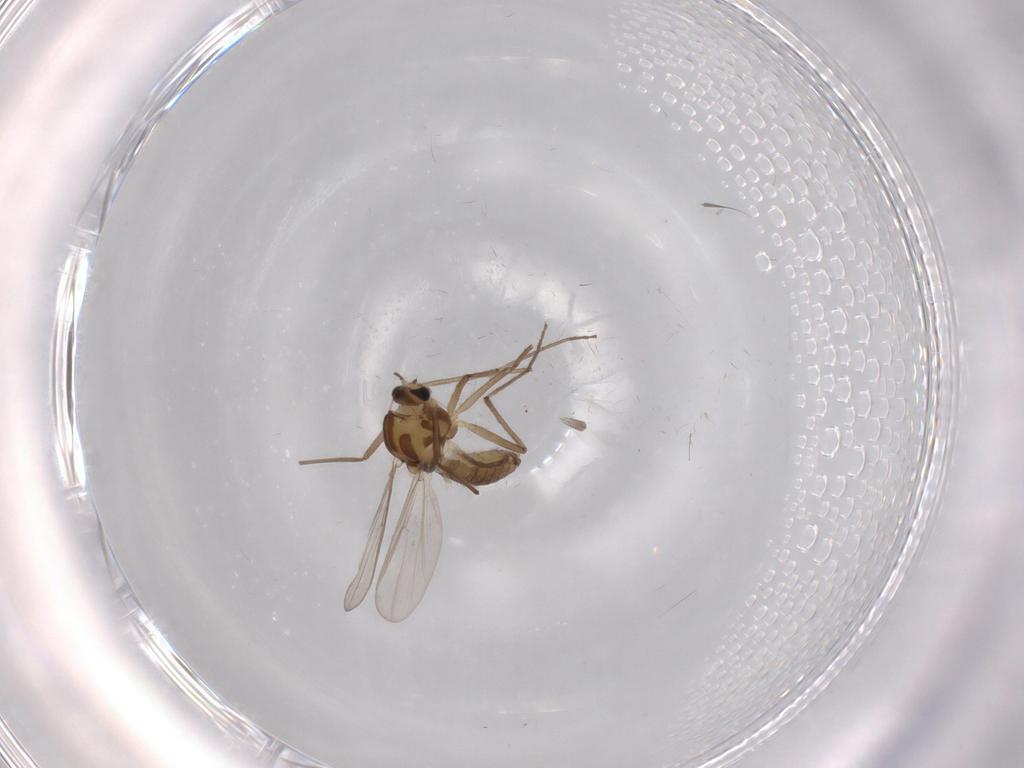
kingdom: Animalia
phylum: Arthropoda
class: Insecta
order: Diptera
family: Chironomidae
